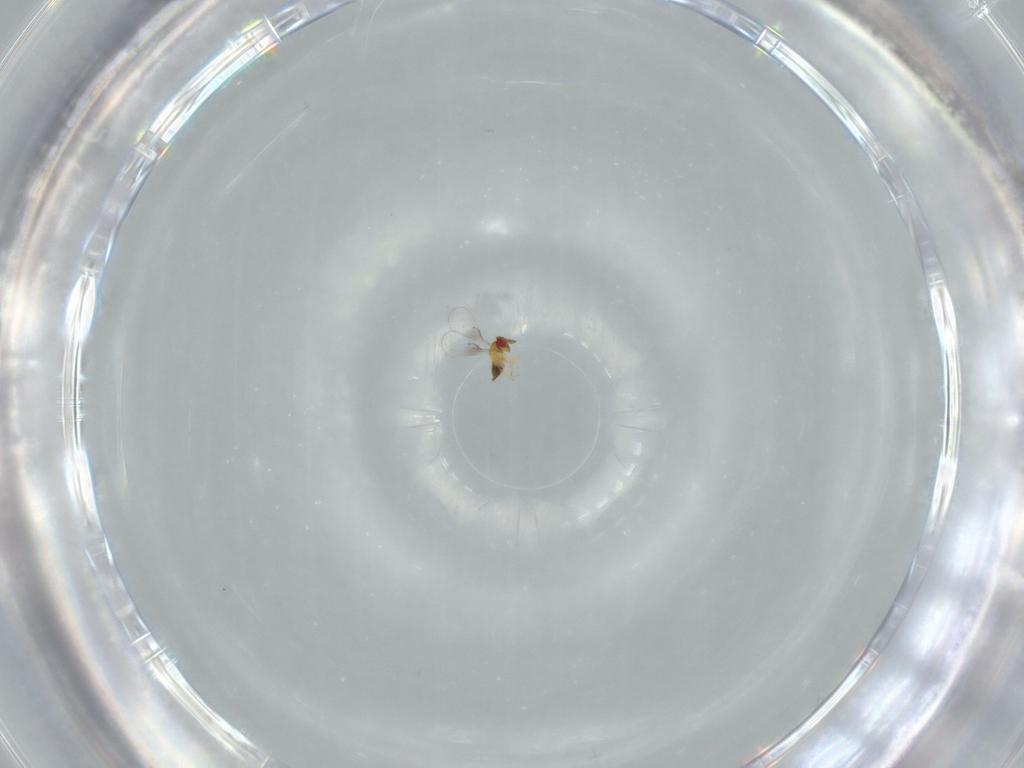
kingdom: Animalia
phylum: Arthropoda
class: Insecta
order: Hymenoptera
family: Trichogrammatidae
